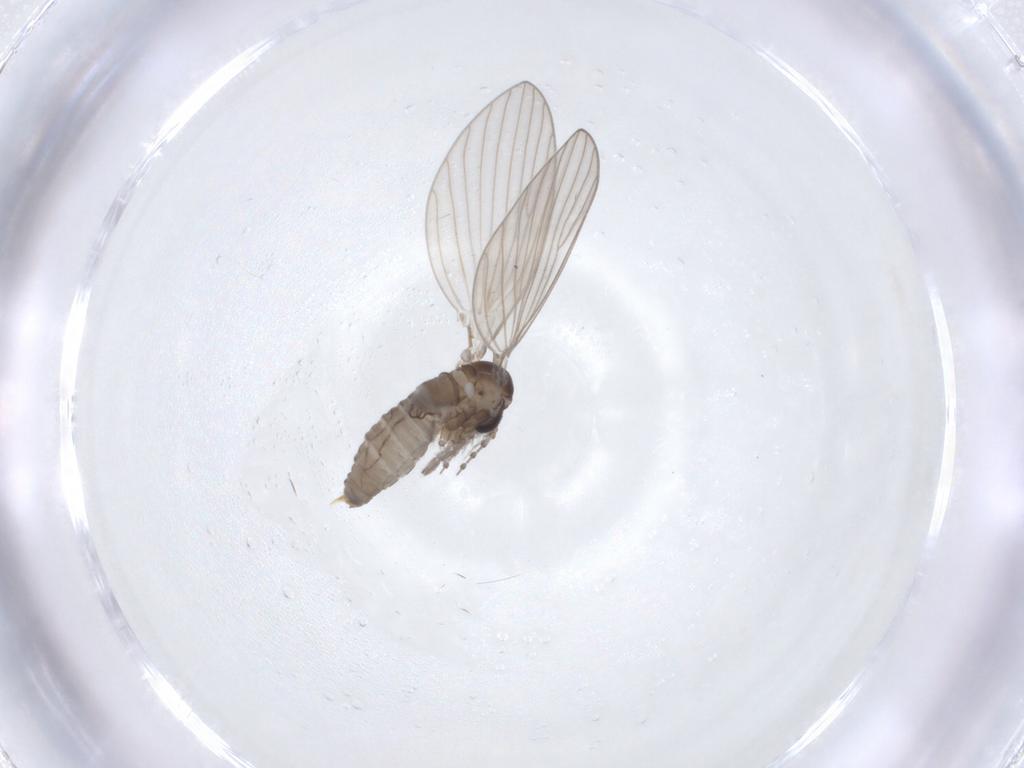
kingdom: Animalia
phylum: Arthropoda
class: Insecta
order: Diptera
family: Psychodidae
